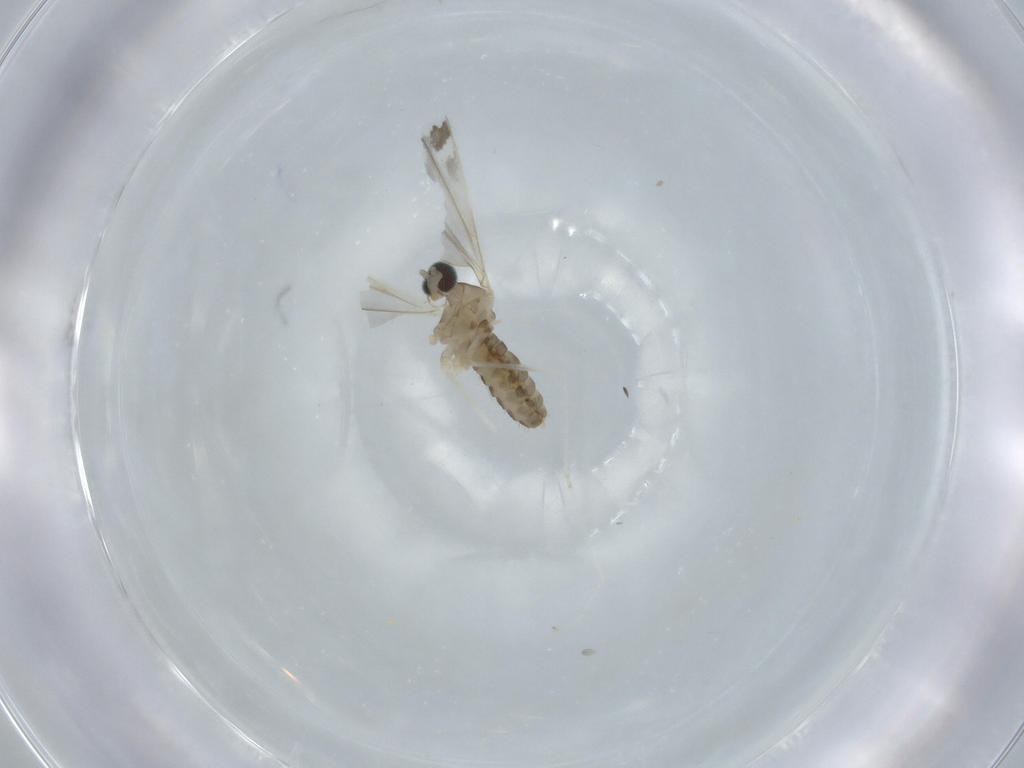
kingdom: Animalia
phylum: Arthropoda
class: Insecta
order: Diptera
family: Cecidomyiidae
